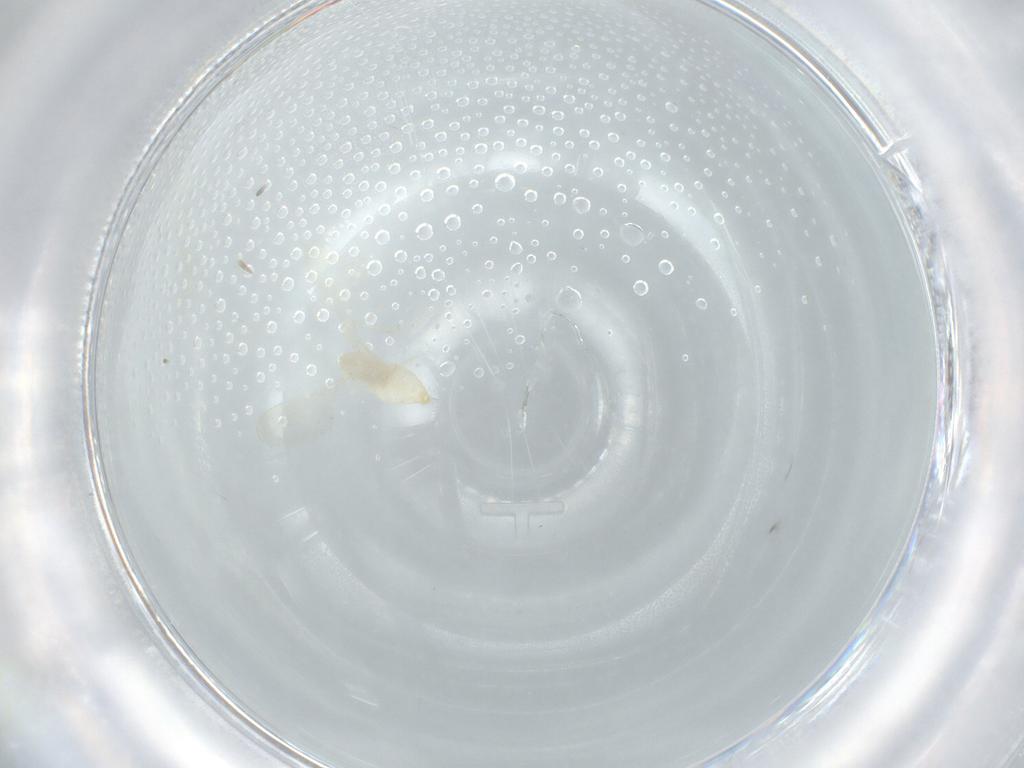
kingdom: Animalia
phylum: Arthropoda
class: Insecta
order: Diptera
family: Cecidomyiidae
